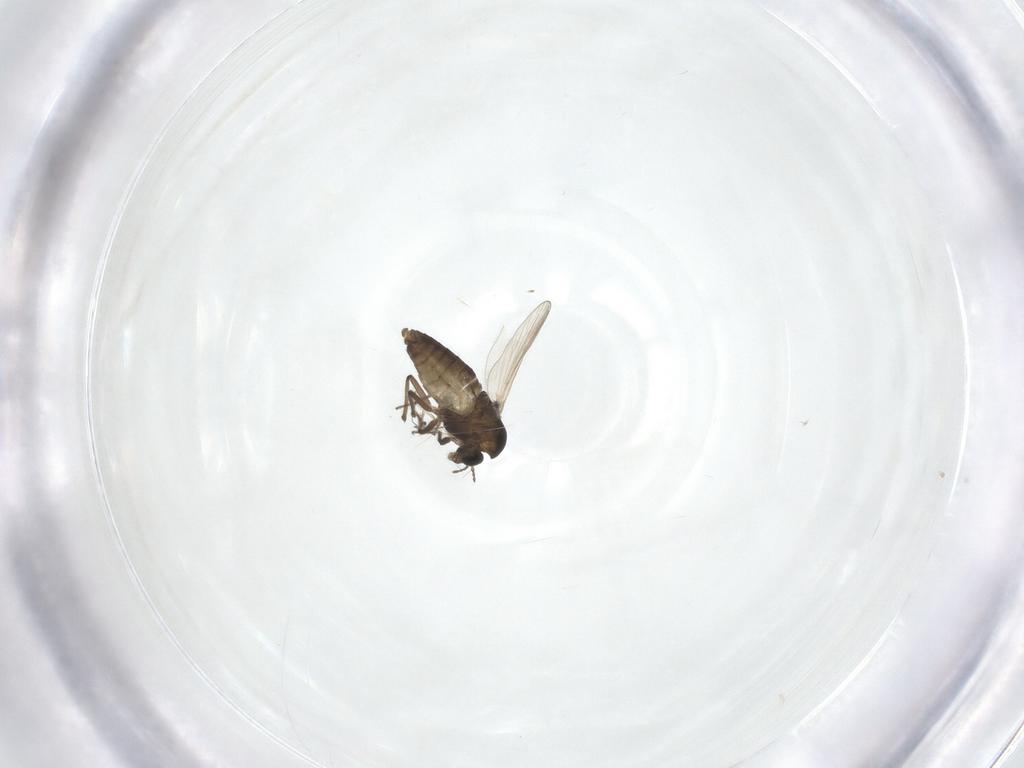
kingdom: Animalia
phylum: Arthropoda
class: Insecta
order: Diptera
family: Chironomidae
